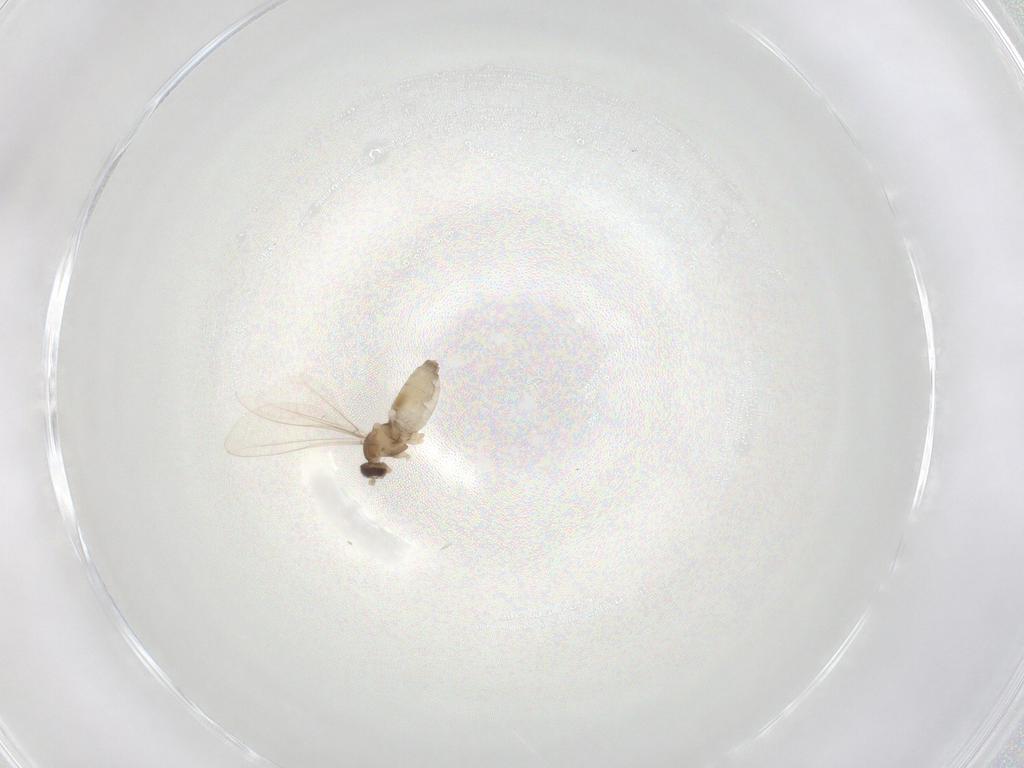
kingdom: Animalia
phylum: Arthropoda
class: Insecta
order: Diptera
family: Cecidomyiidae
